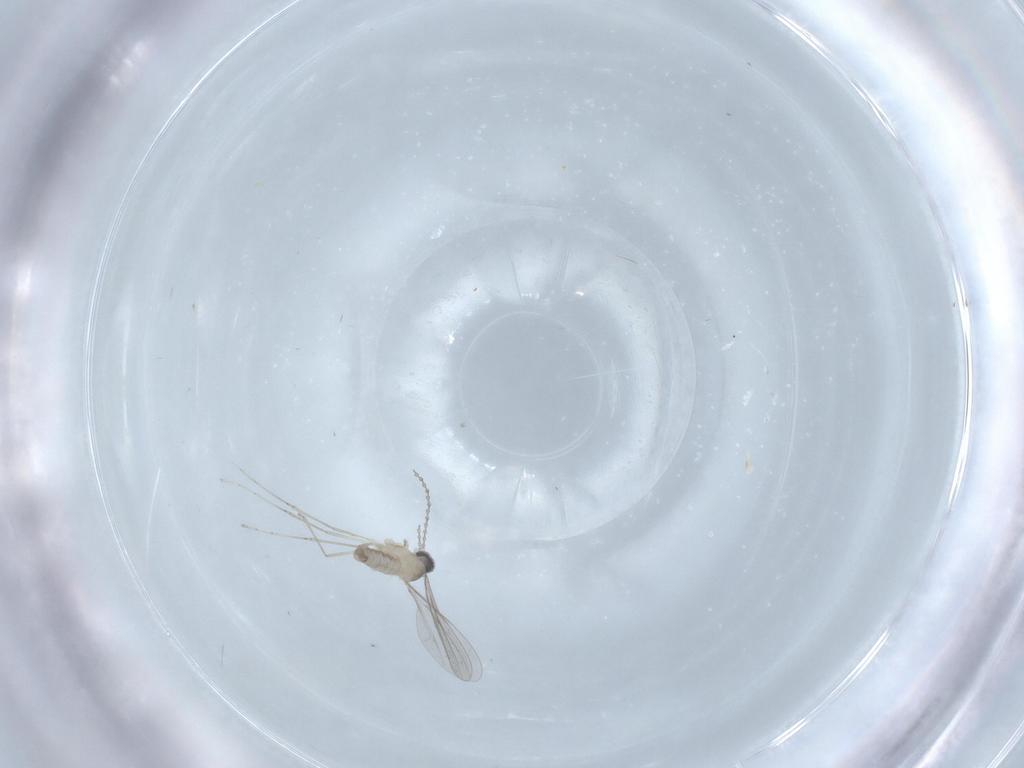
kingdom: Animalia
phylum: Arthropoda
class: Insecta
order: Diptera
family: Cecidomyiidae
